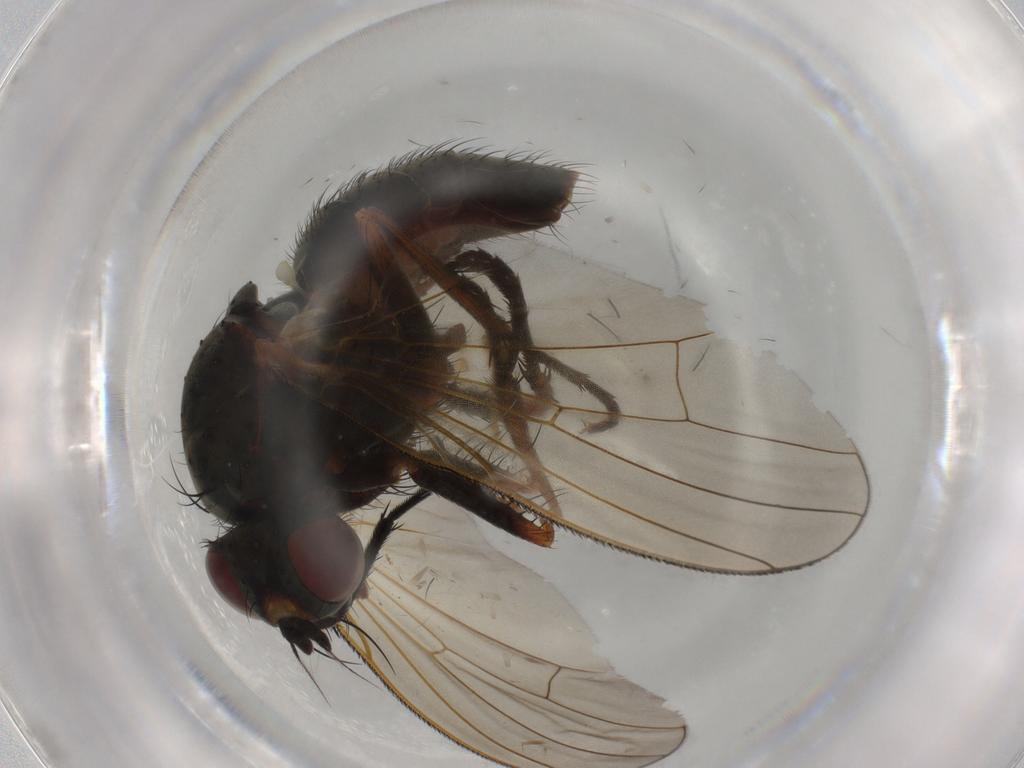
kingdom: Animalia
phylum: Arthropoda
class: Insecta
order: Diptera
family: Anthomyiidae
